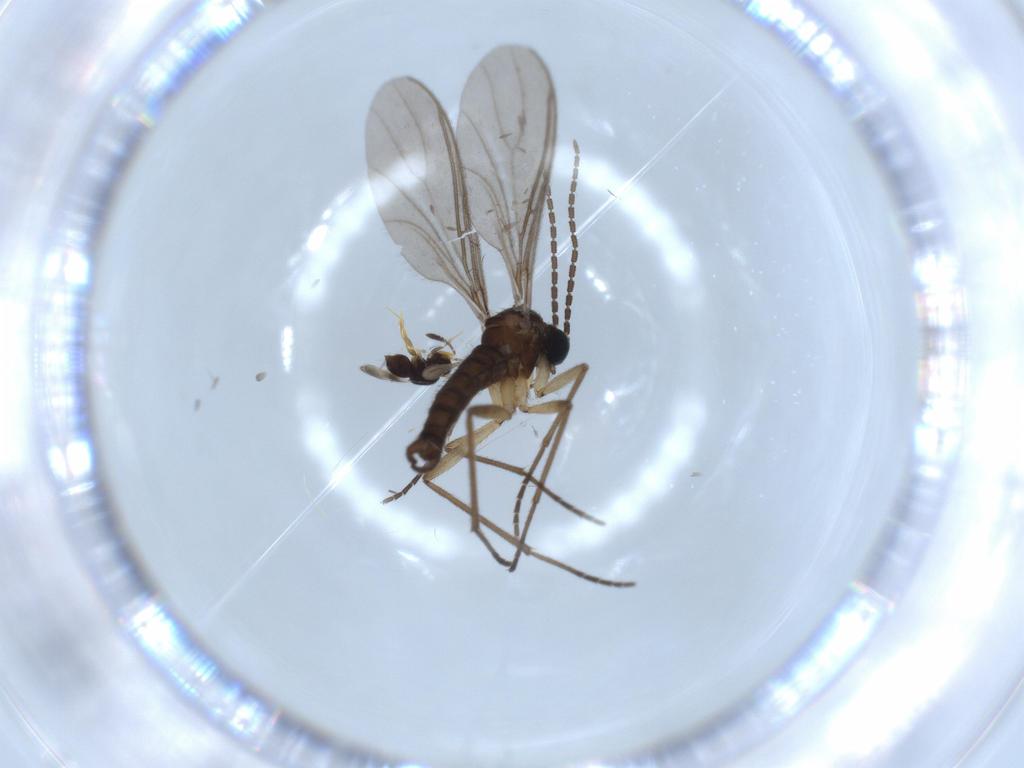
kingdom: Animalia
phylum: Arthropoda
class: Insecta
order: Diptera
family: Sciaridae
